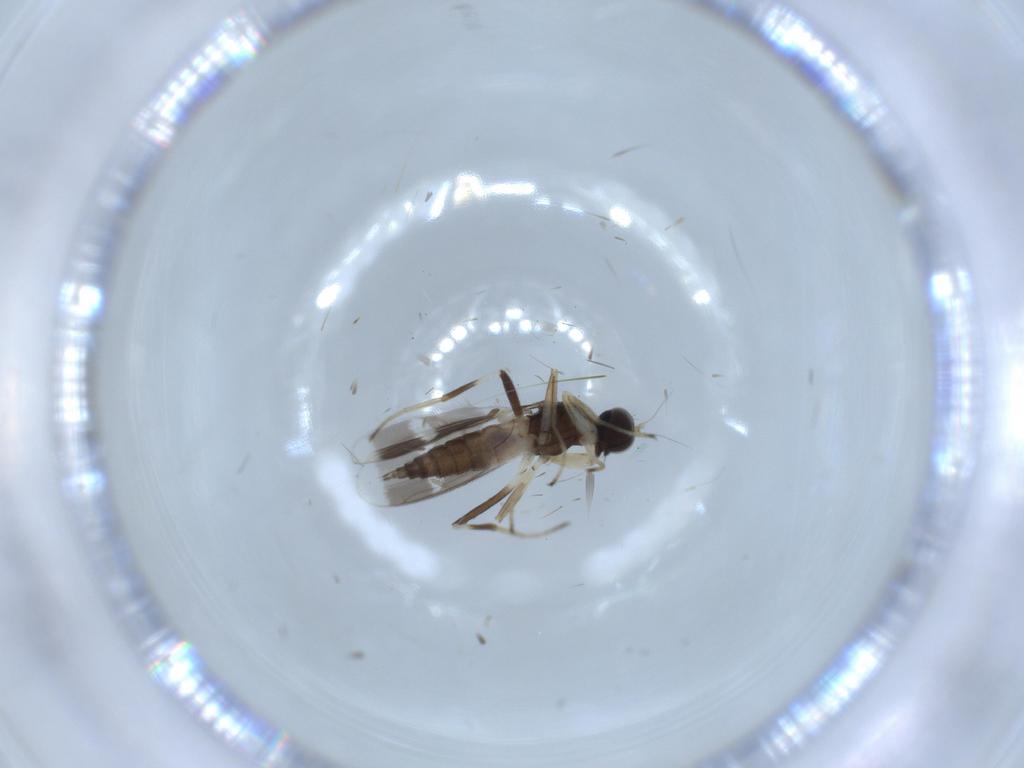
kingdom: Animalia
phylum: Arthropoda
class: Insecta
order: Diptera
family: Hybotidae
